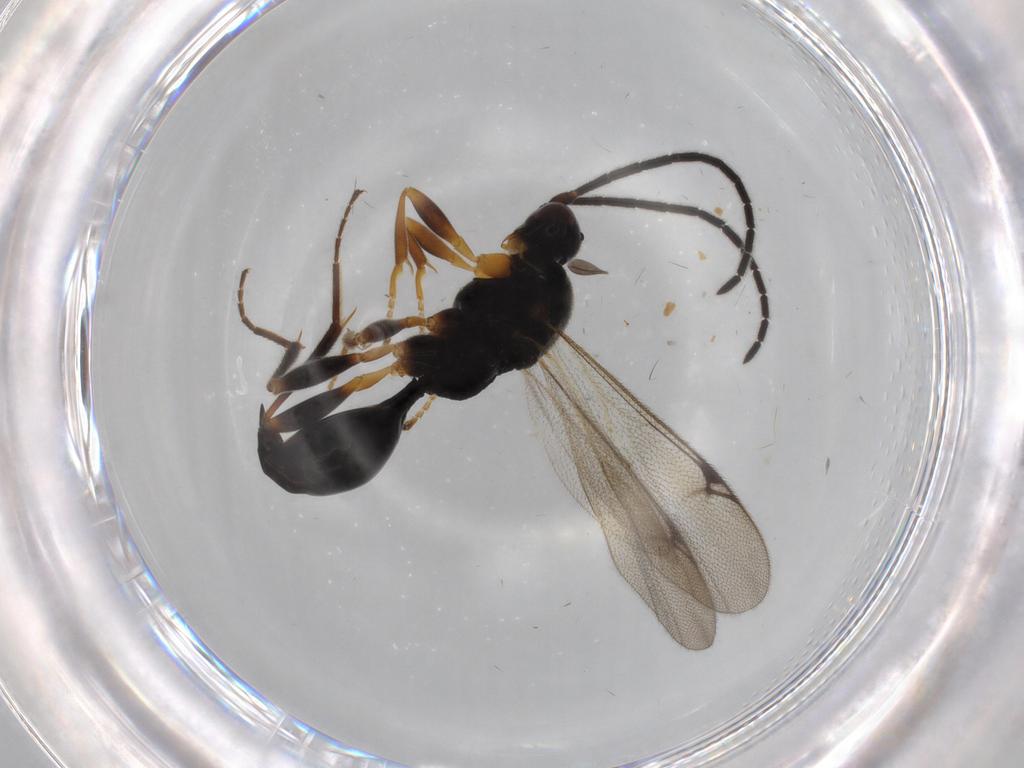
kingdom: Animalia
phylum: Arthropoda
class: Insecta
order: Hymenoptera
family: Proctotrupidae
